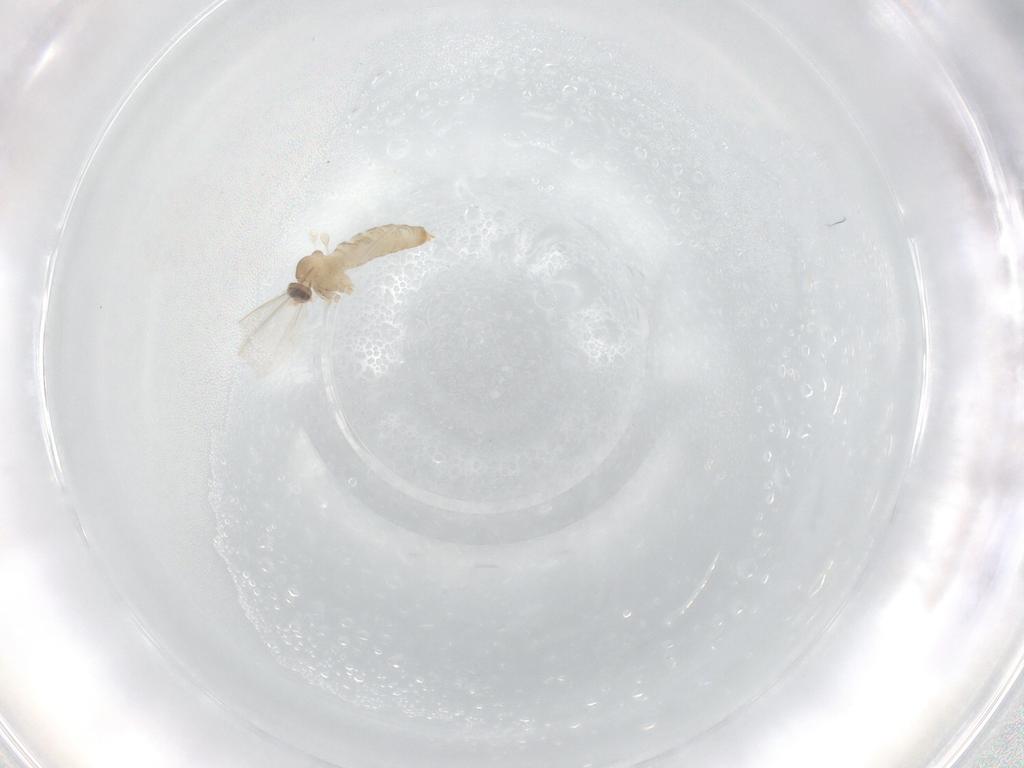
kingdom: Animalia
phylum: Arthropoda
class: Insecta
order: Diptera
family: Cecidomyiidae
